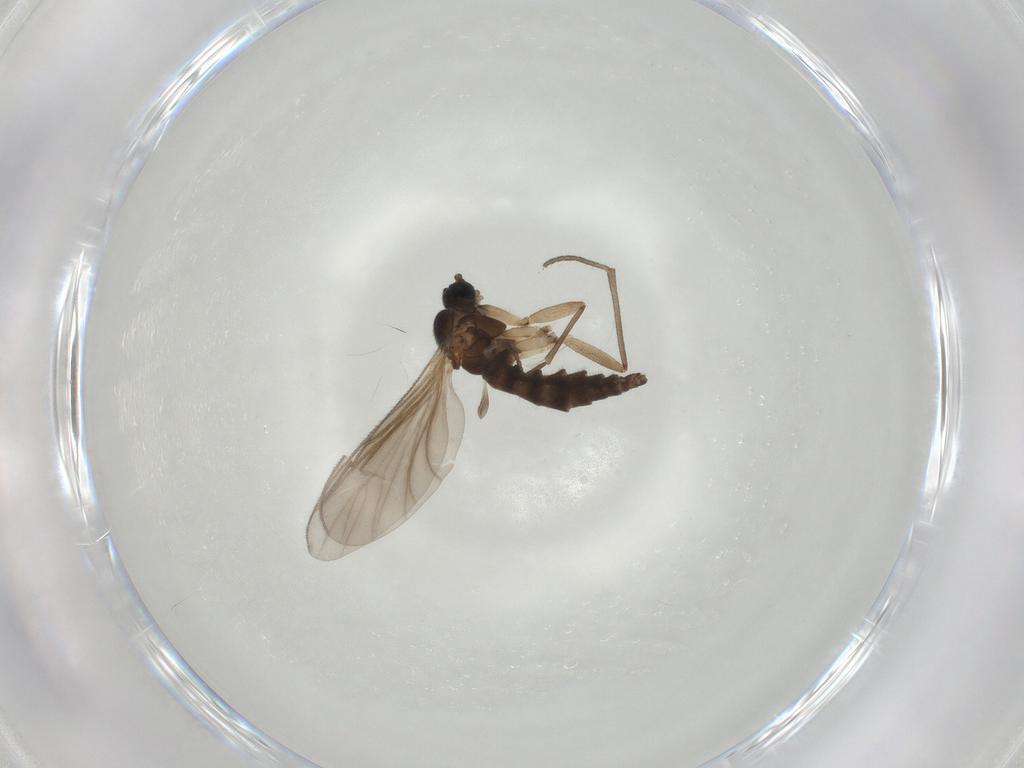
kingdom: Animalia
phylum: Arthropoda
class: Insecta
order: Diptera
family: Sciaridae
